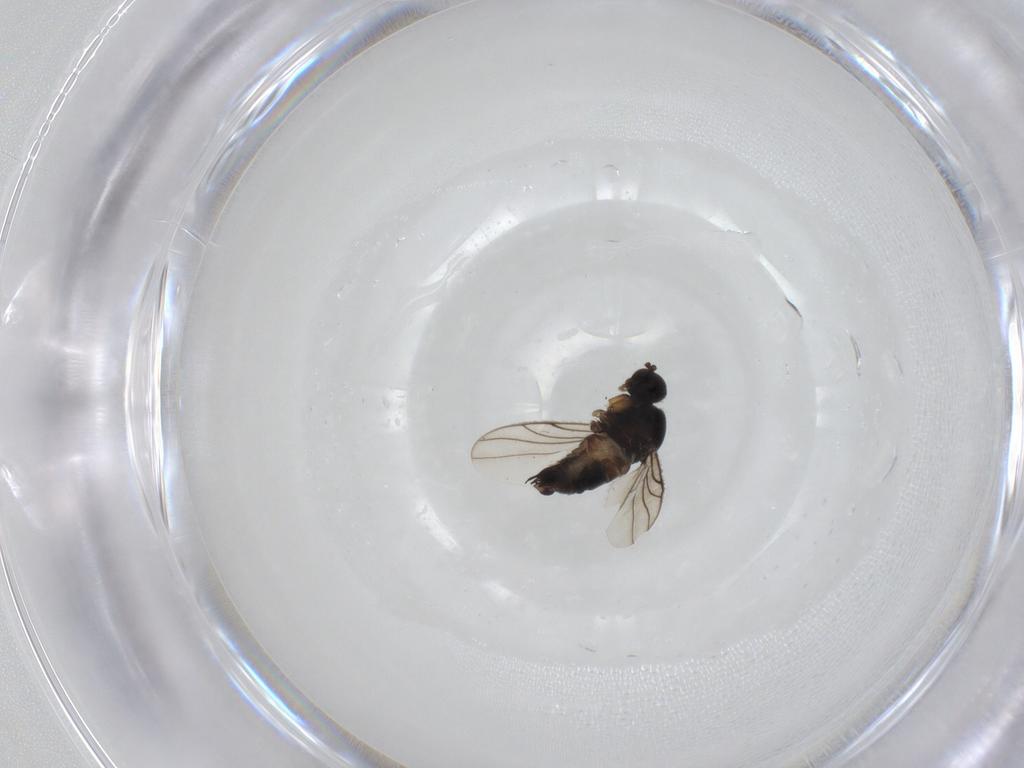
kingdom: Animalia
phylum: Arthropoda
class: Insecta
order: Diptera
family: Hybotidae
